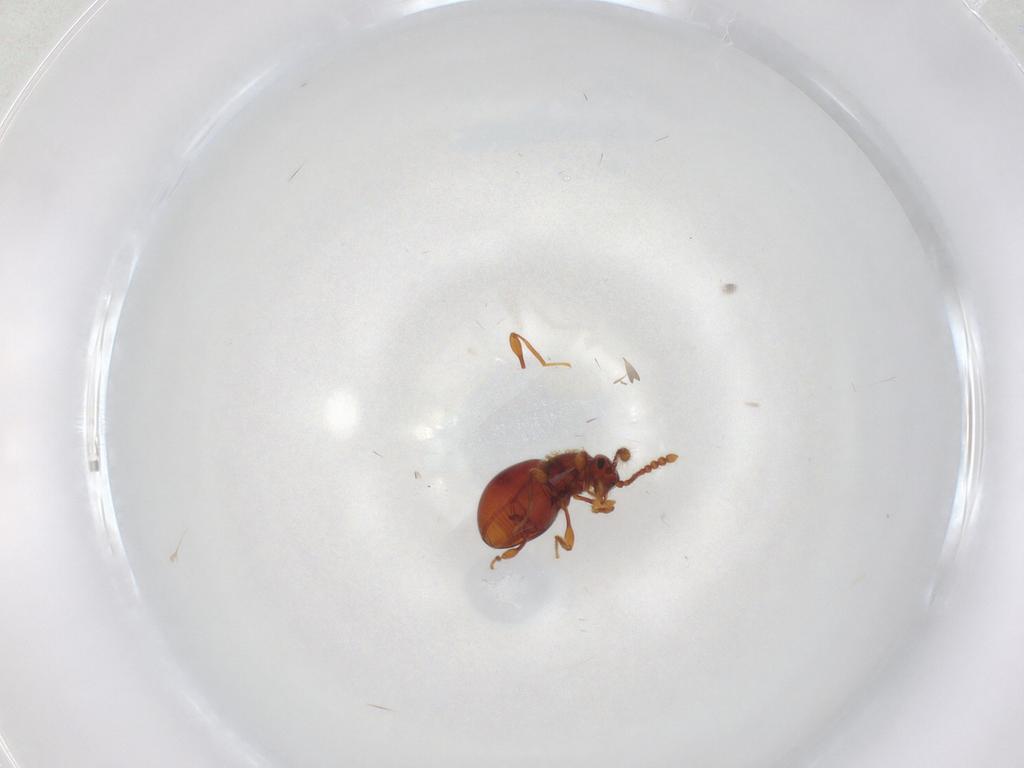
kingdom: Animalia
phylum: Arthropoda
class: Insecta
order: Coleoptera
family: Staphylinidae
